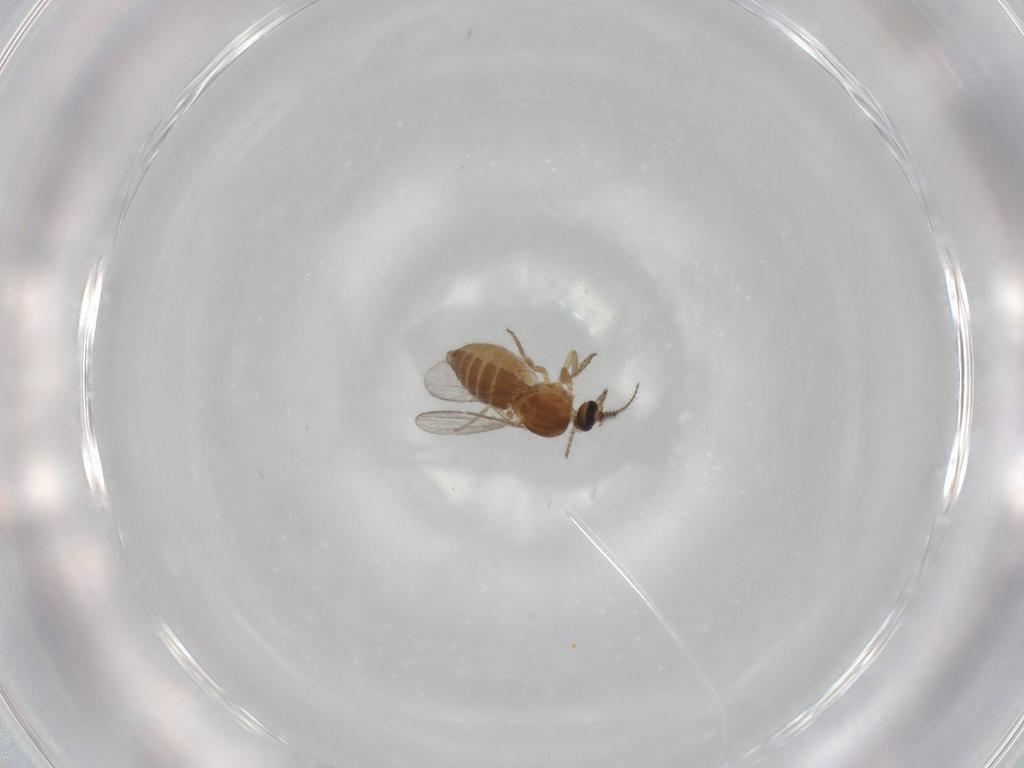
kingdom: Animalia
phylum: Arthropoda
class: Insecta
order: Diptera
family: Ceratopogonidae
